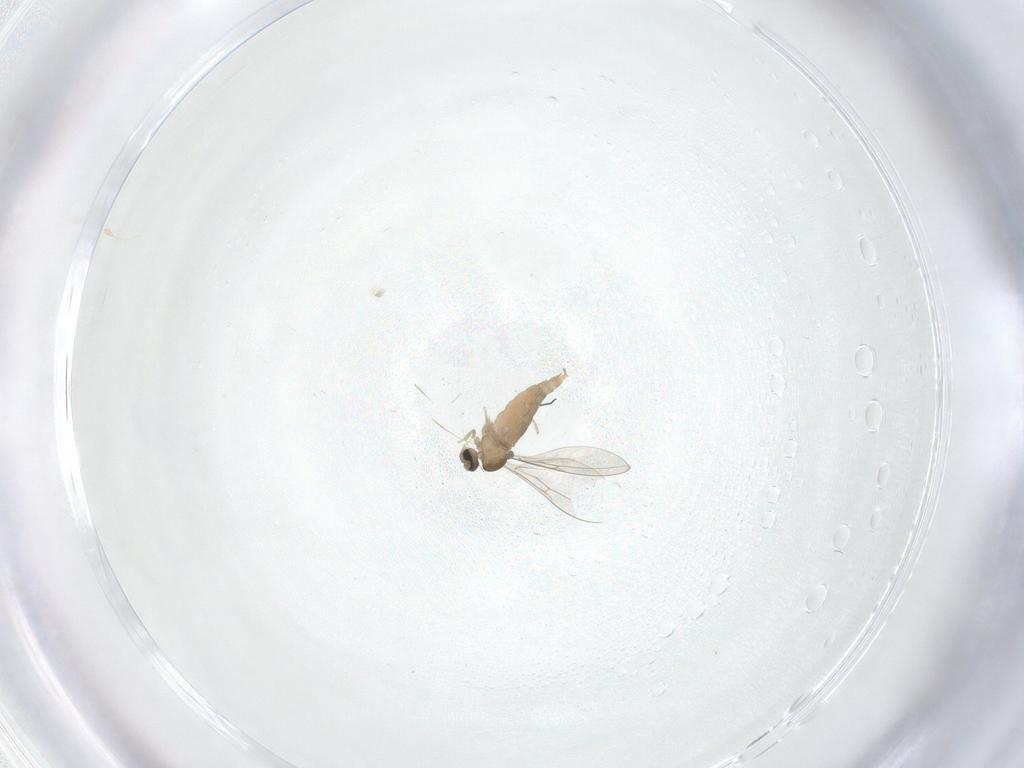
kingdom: Animalia
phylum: Arthropoda
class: Insecta
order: Diptera
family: Cecidomyiidae
